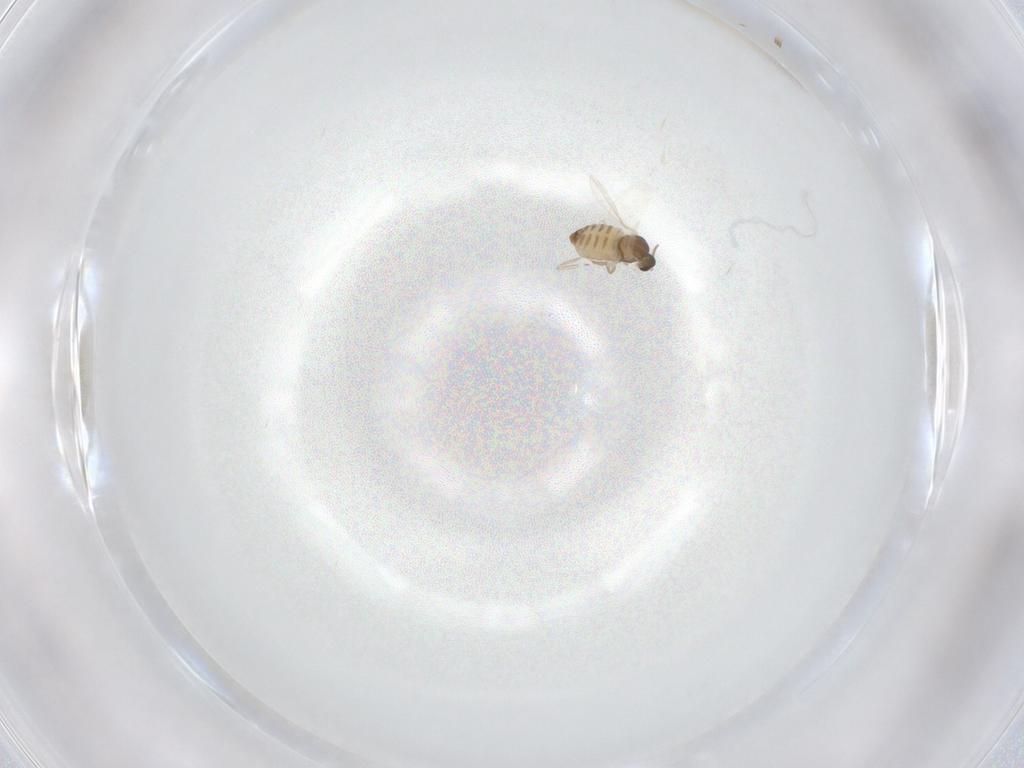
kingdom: Animalia
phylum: Arthropoda
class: Insecta
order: Diptera
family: Cecidomyiidae
